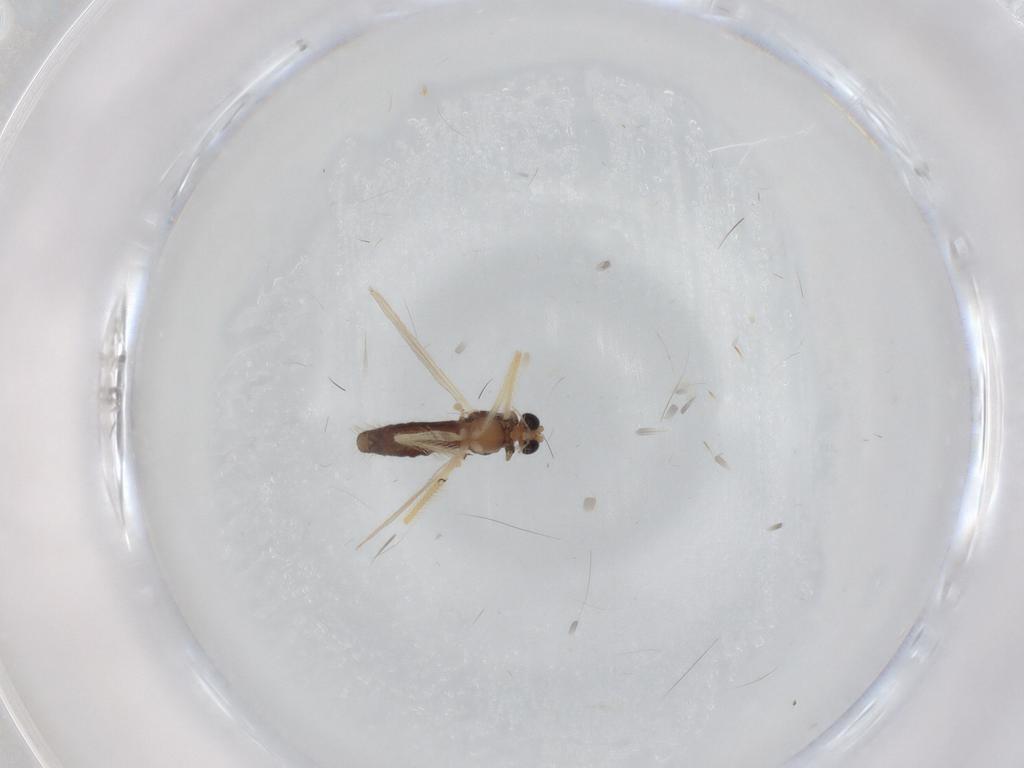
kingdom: Animalia
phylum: Arthropoda
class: Insecta
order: Diptera
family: Chironomidae
